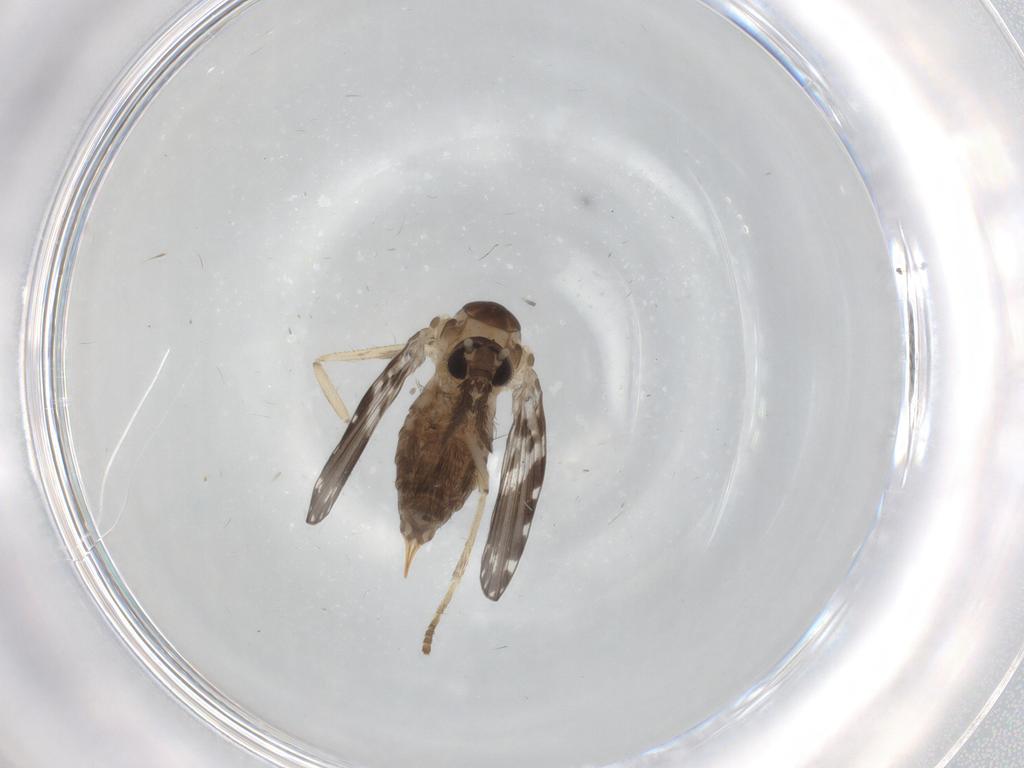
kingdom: Animalia
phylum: Arthropoda
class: Insecta
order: Diptera
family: Psychodidae
